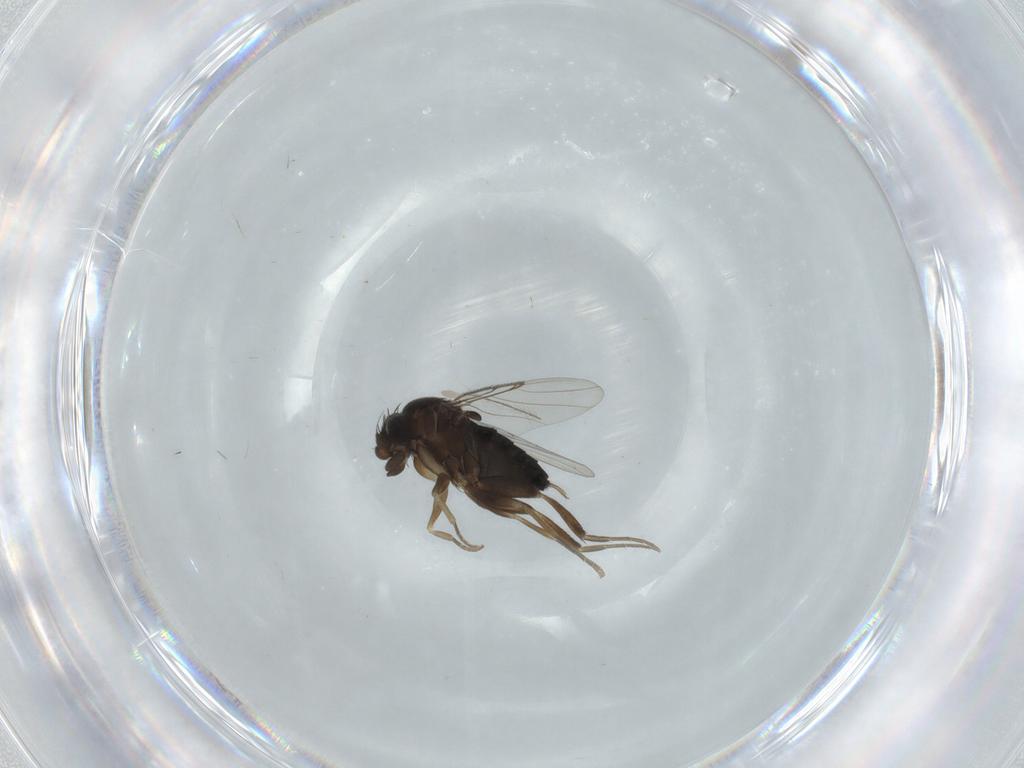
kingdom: Animalia
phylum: Arthropoda
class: Insecta
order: Diptera
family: Phoridae
